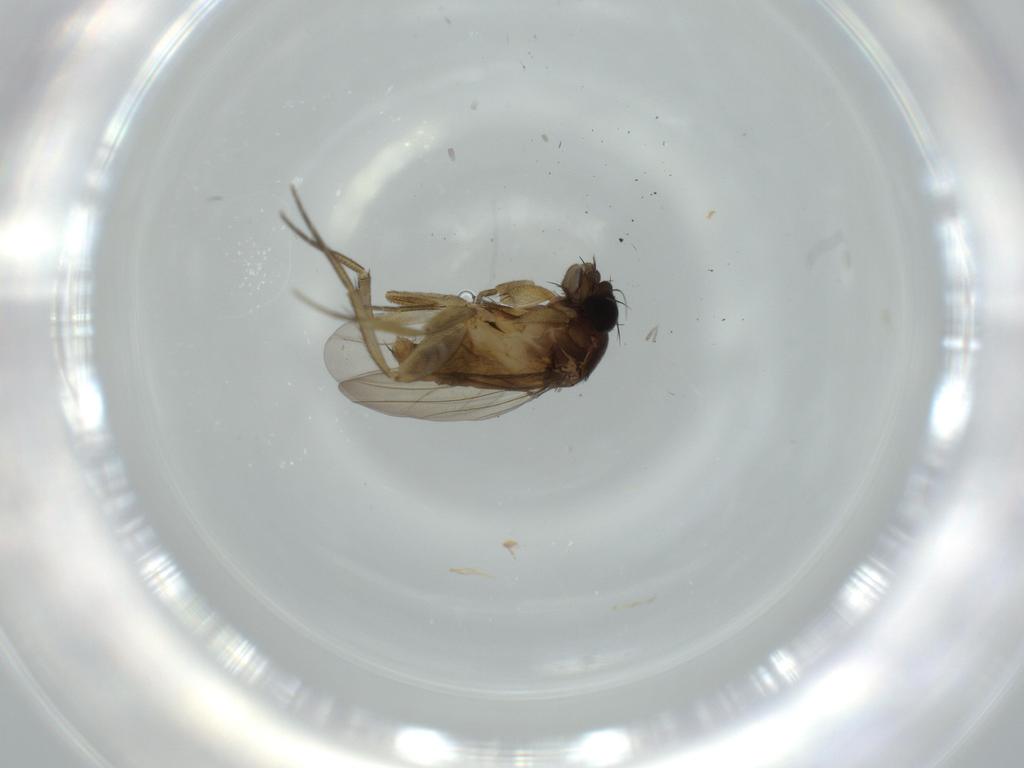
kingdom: Animalia
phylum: Arthropoda
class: Insecta
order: Diptera
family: Phoridae
